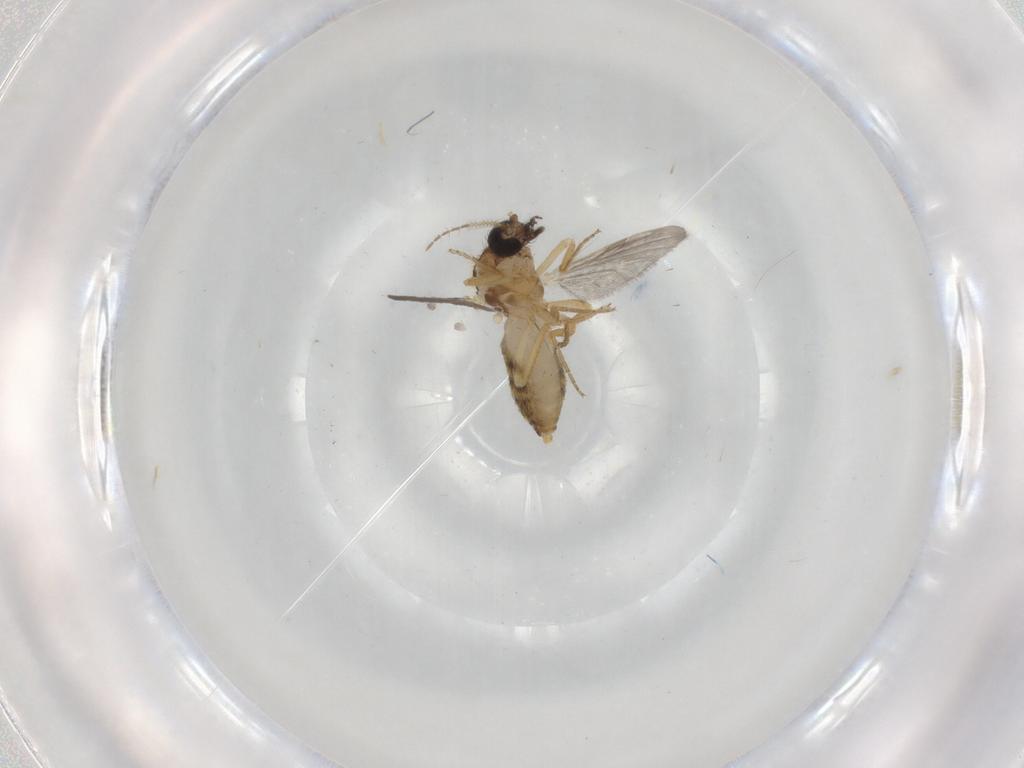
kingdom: Animalia
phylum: Arthropoda
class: Insecta
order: Diptera
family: Ceratopogonidae
